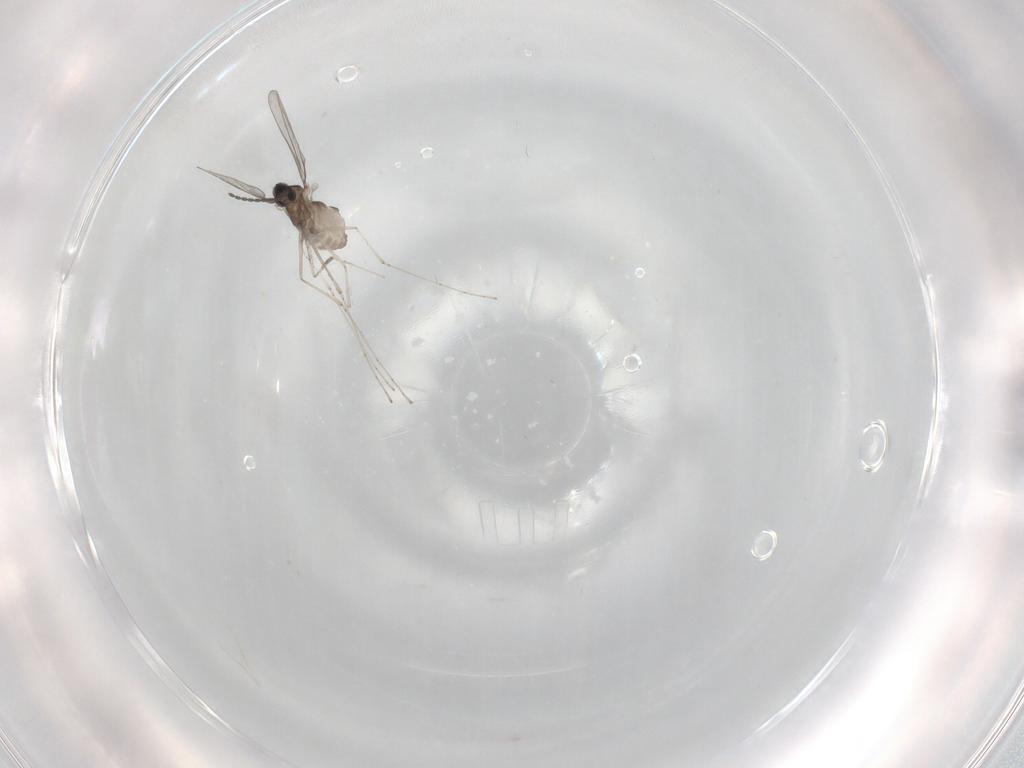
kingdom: Animalia
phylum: Arthropoda
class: Insecta
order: Diptera
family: Cecidomyiidae
